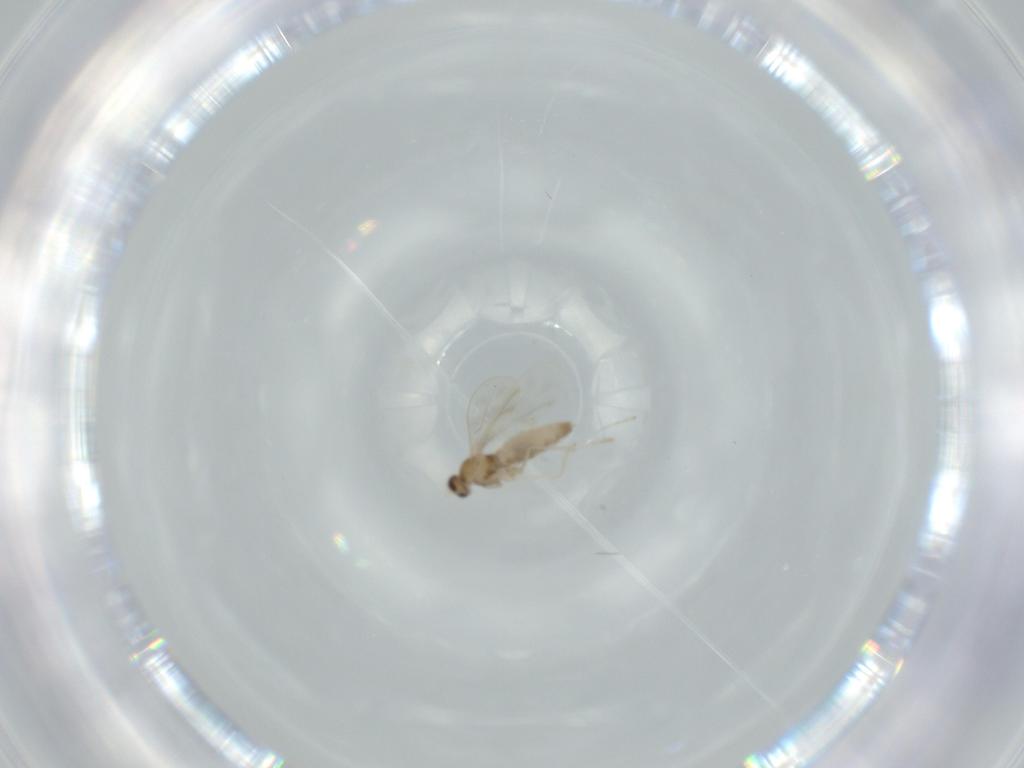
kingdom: Animalia
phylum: Arthropoda
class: Insecta
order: Diptera
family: Cecidomyiidae
